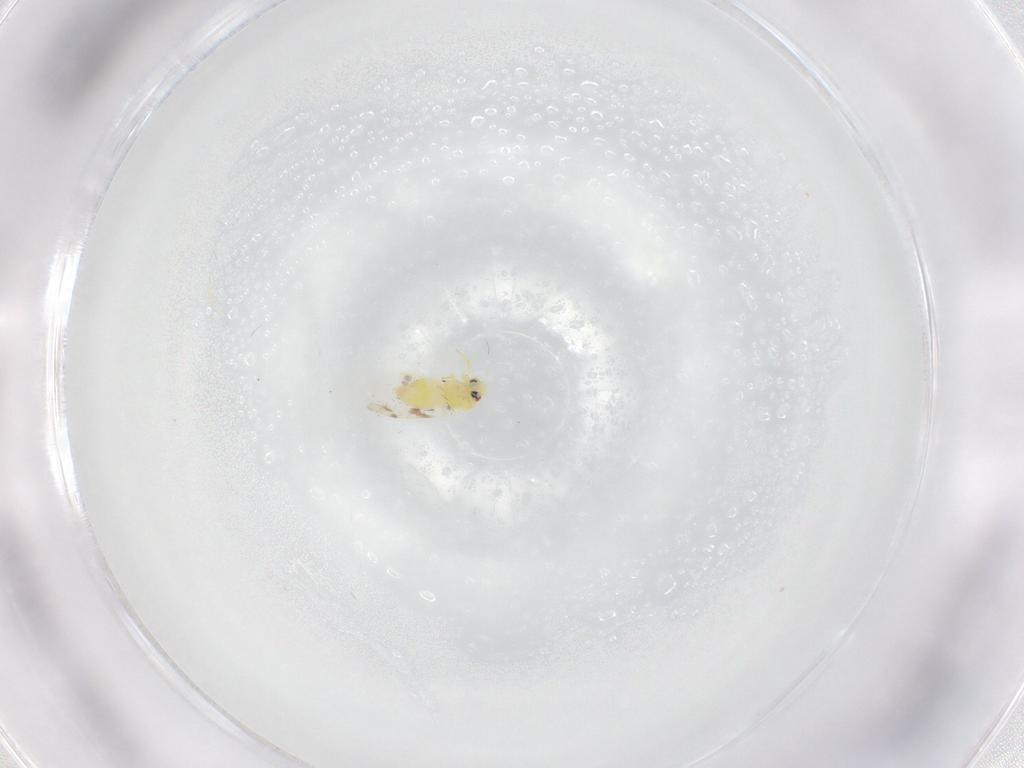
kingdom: Animalia
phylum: Arthropoda
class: Insecta
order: Hemiptera
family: Aleyrodidae
